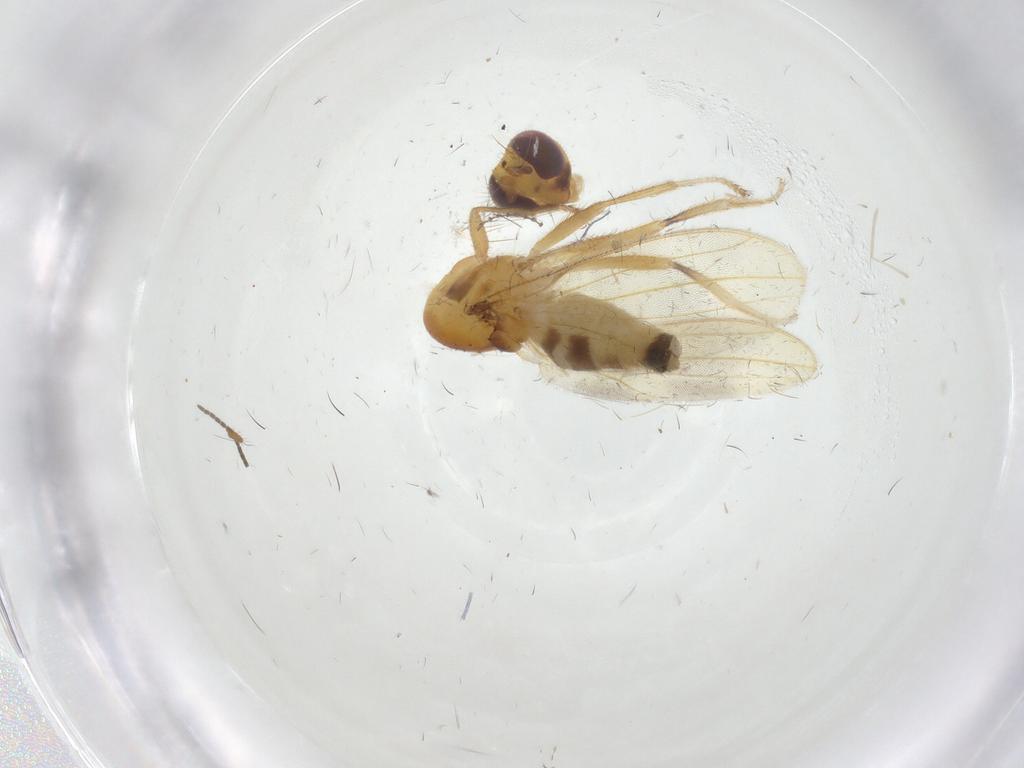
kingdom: Animalia
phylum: Arthropoda
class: Insecta
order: Diptera
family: Periscelididae
